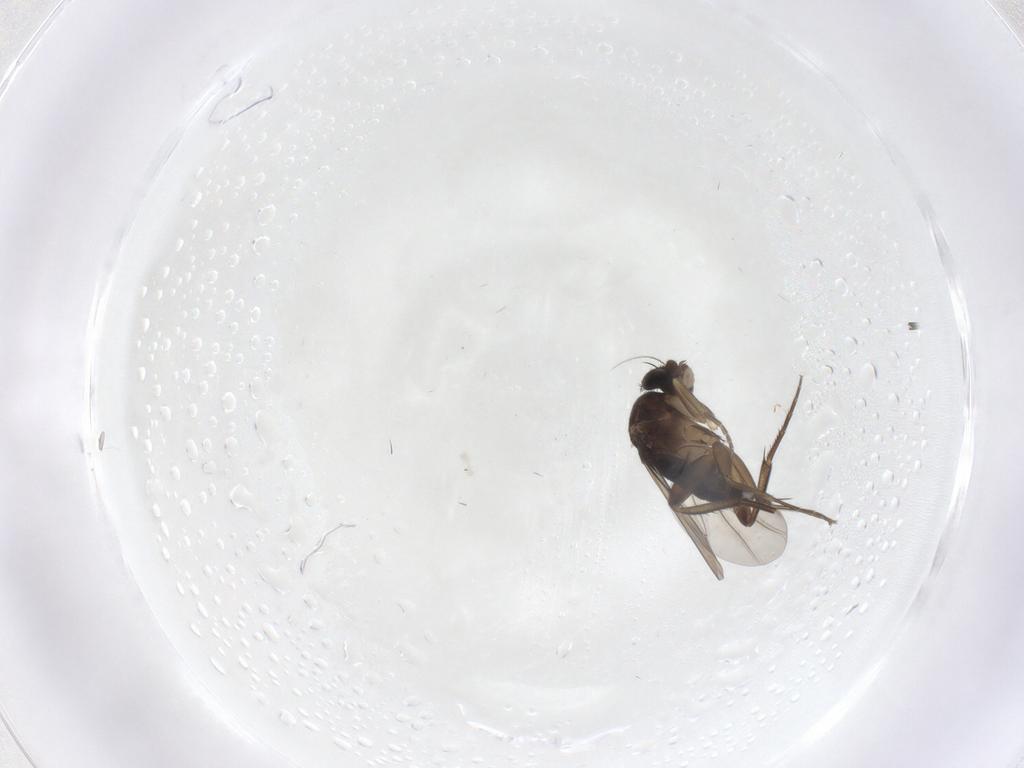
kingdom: Animalia
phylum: Arthropoda
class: Insecta
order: Diptera
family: Phoridae
